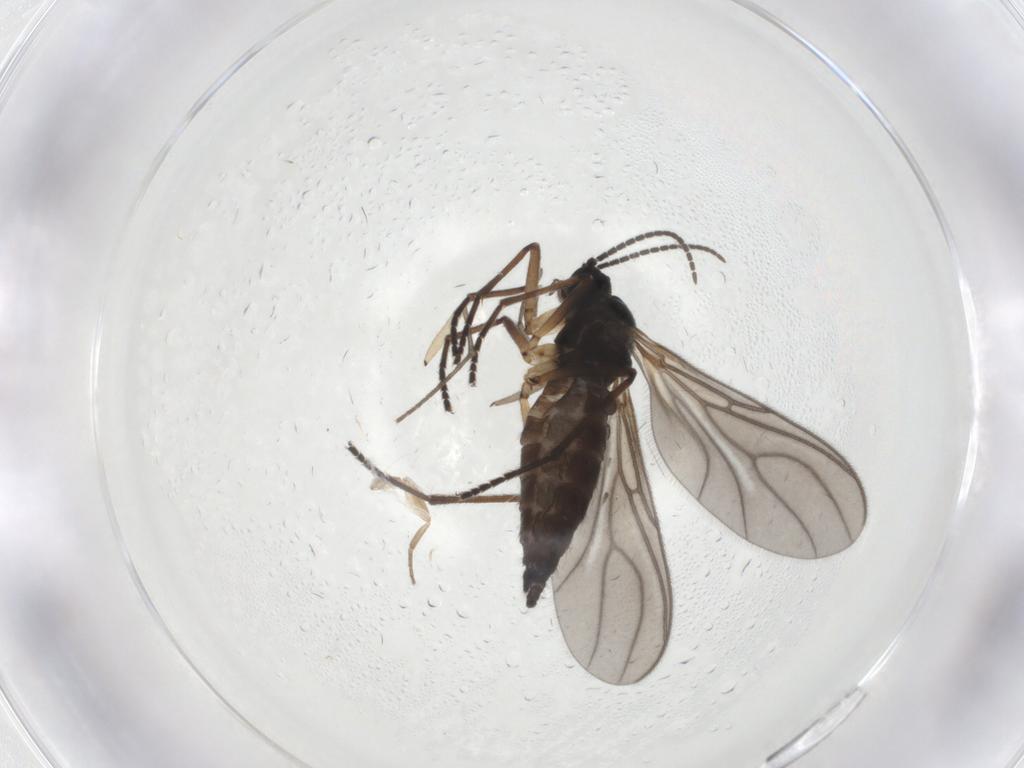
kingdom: Animalia
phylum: Arthropoda
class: Insecta
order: Diptera
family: Sciaridae
